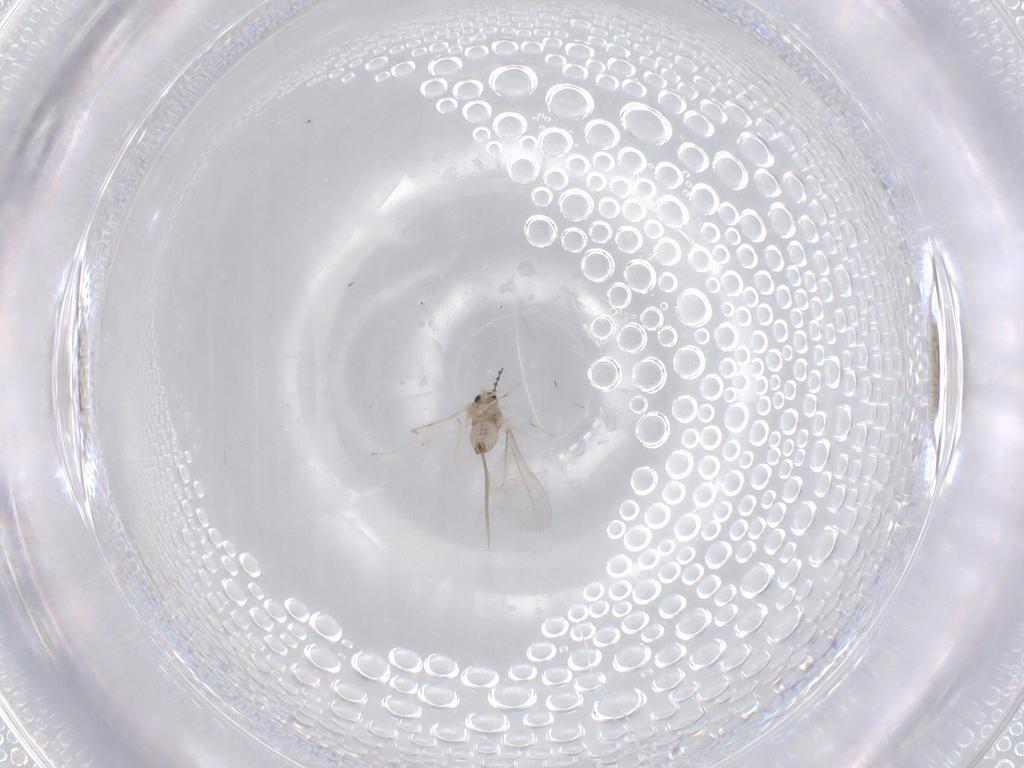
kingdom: Animalia
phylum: Arthropoda
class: Insecta
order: Diptera
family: Cecidomyiidae
